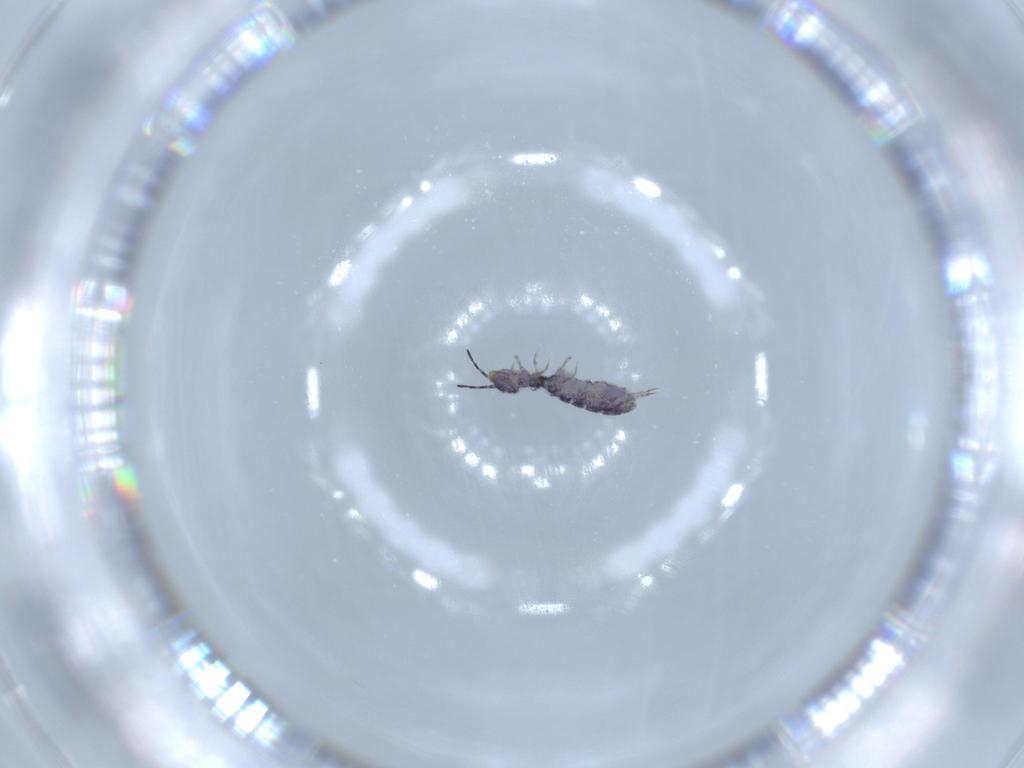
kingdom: Animalia
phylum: Arthropoda
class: Collembola
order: Entomobryomorpha
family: Isotomidae
